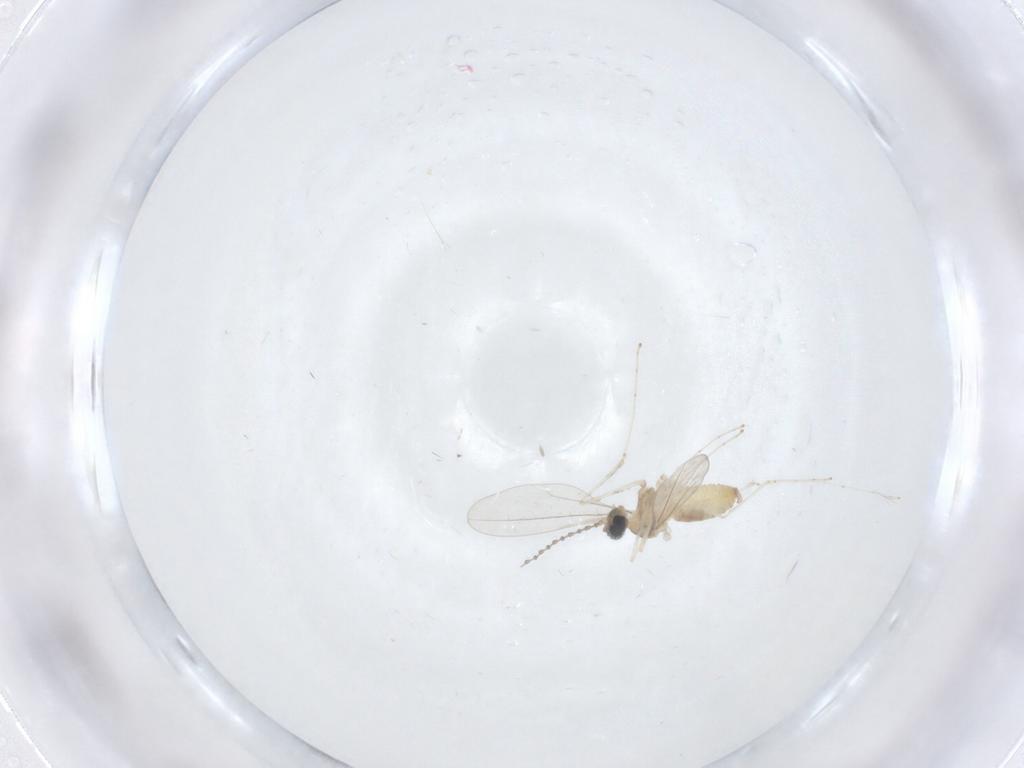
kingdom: Animalia
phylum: Arthropoda
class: Insecta
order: Diptera
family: Cecidomyiidae
